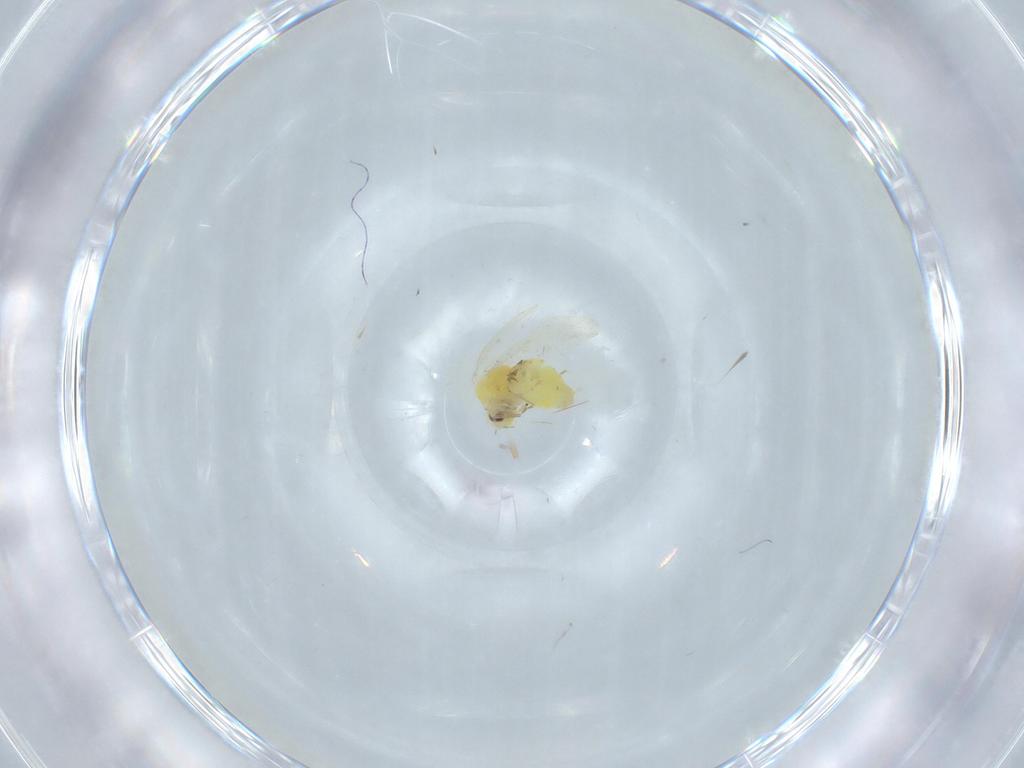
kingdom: Animalia
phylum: Arthropoda
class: Insecta
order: Hemiptera
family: Aleyrodidae
